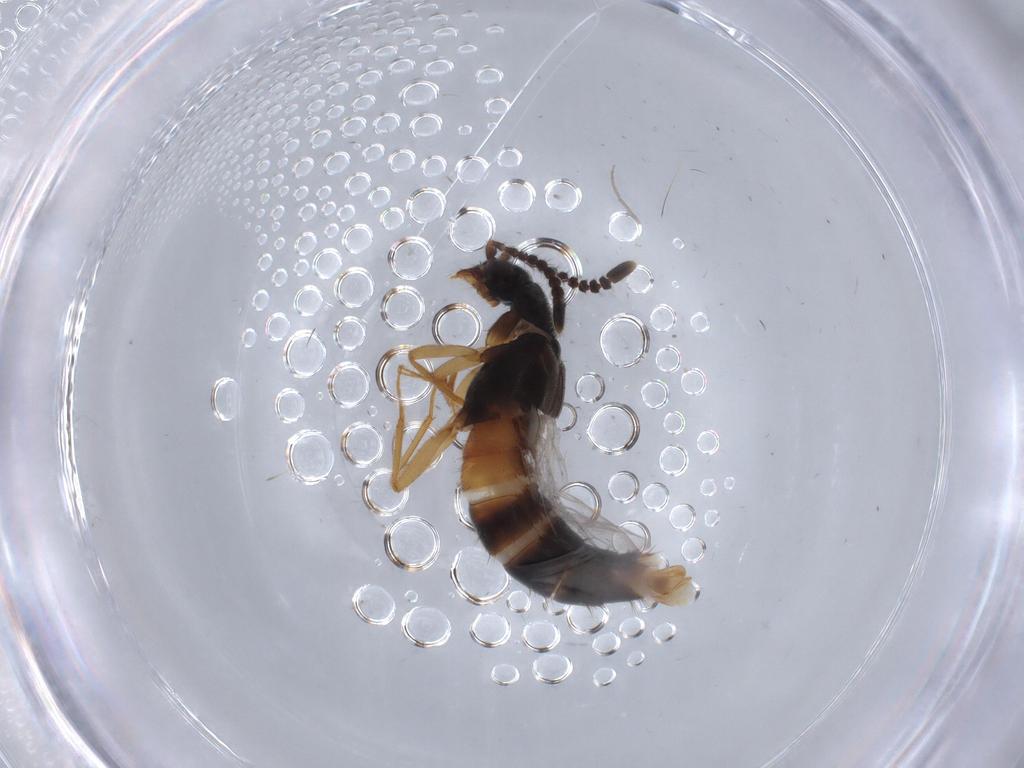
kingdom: Animalia
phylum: Arthropoda
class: Insecta
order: Coleoptera
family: Staphylinidae
